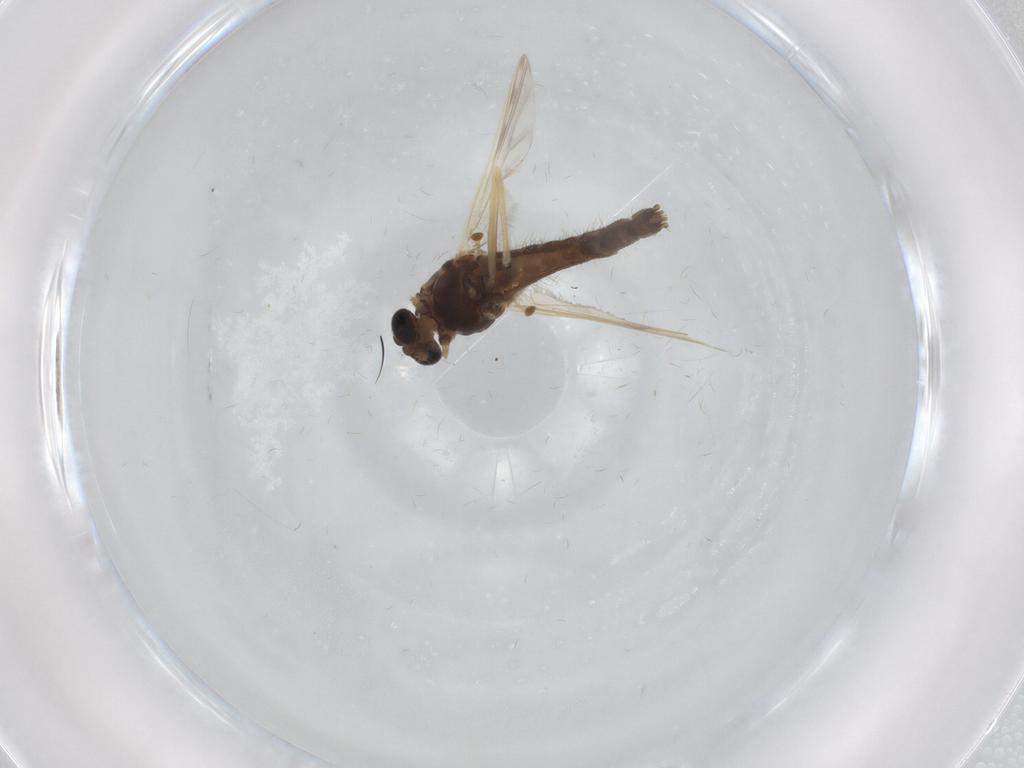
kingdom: Animalia
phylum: Arthropoda
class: Insecta
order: Diptera
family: Chironomidae
